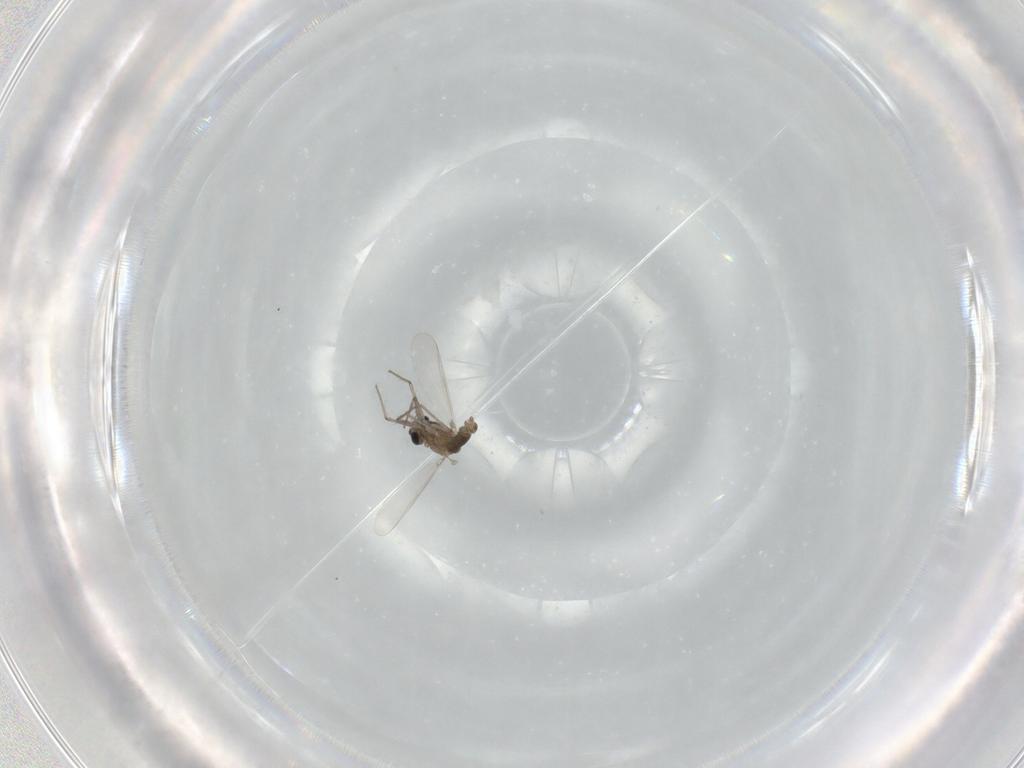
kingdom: Animalia
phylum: Arthropoda
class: Insecta
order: Diptera
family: Chironomidae
